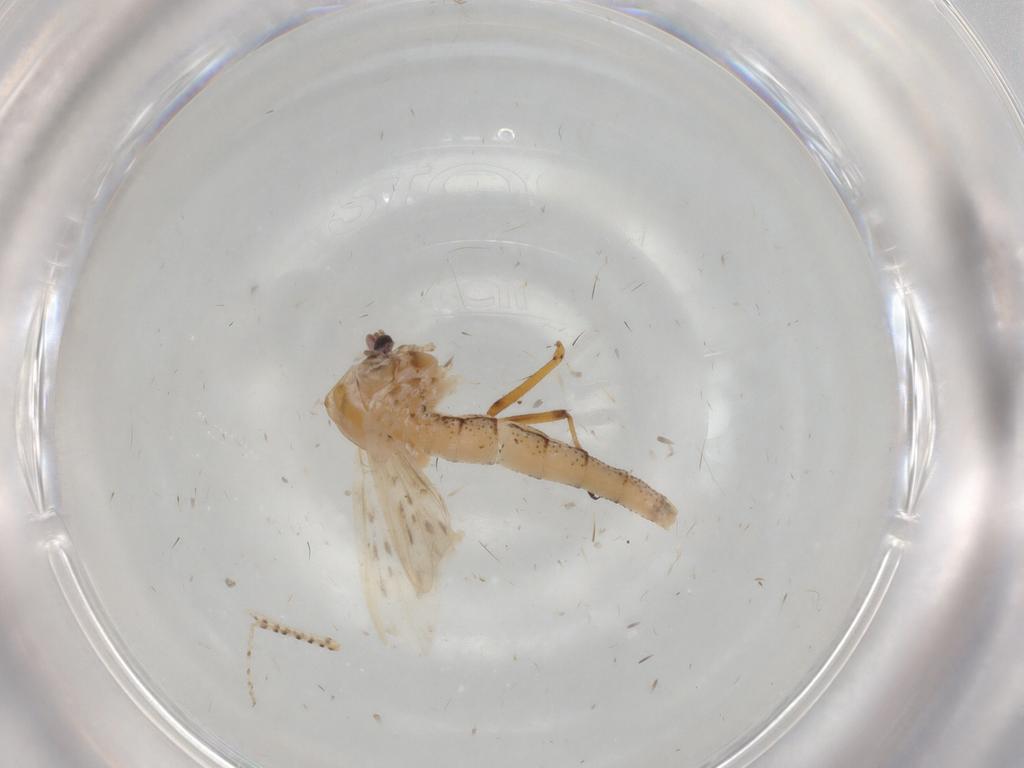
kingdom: Animalia
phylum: Arthropoda
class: Insecta
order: Diptera
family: Chaoboridae
